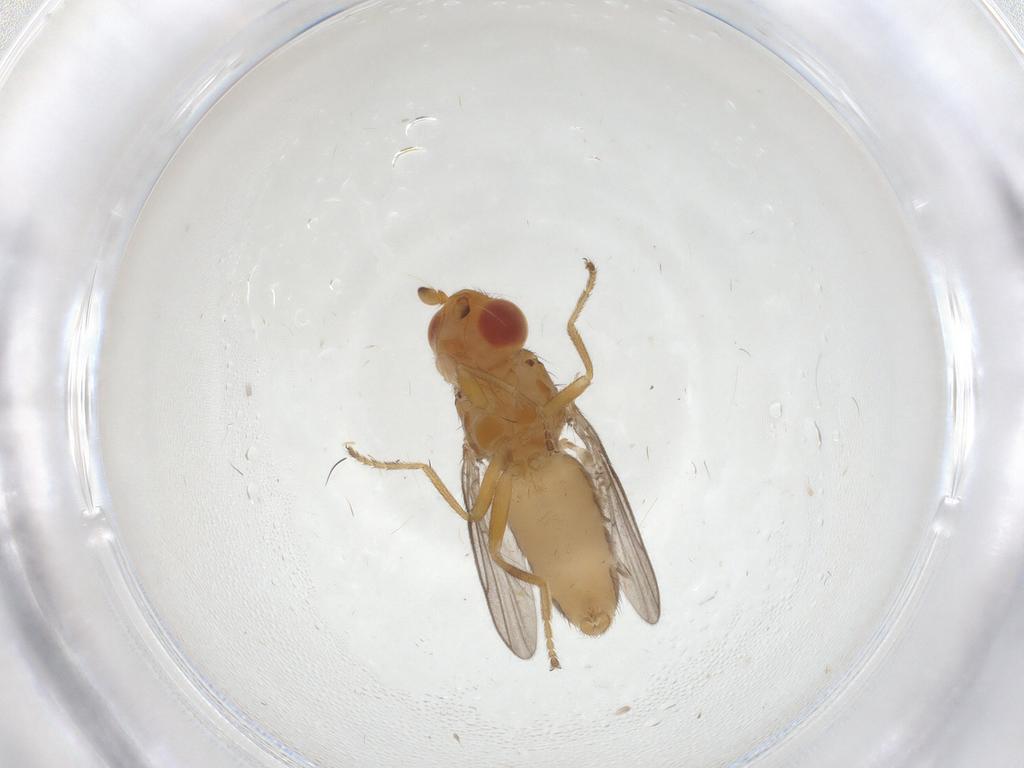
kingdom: Animalia
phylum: Arthropoda
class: Insecta
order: Diptera
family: Chloropidae
